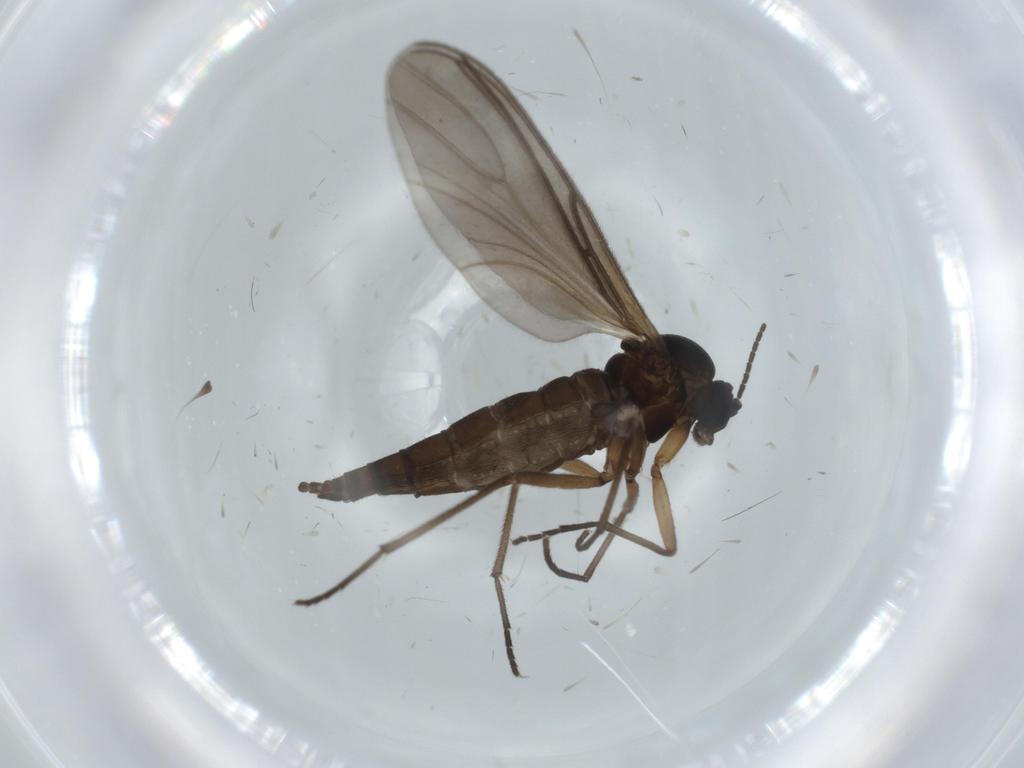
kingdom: Animalia
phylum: Arthropoda
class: Insecta
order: Diptera
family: Sciaridae
